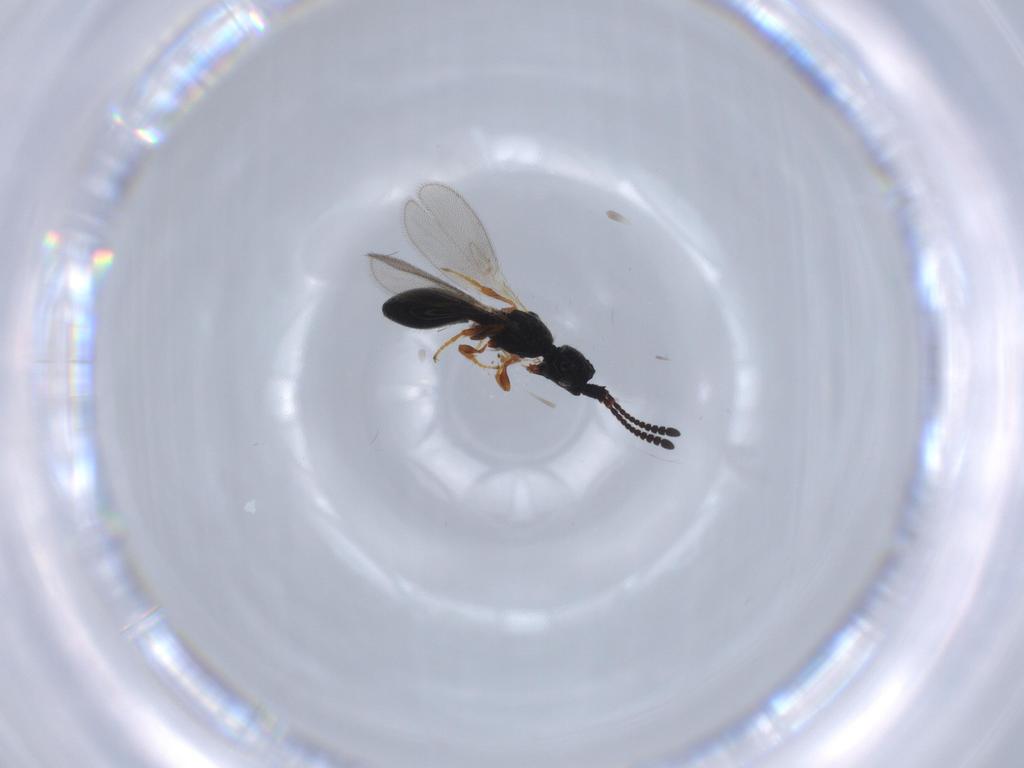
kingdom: Animalia
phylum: Arthropoda
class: Insecta
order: Hymenoptera
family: Diapriidae
